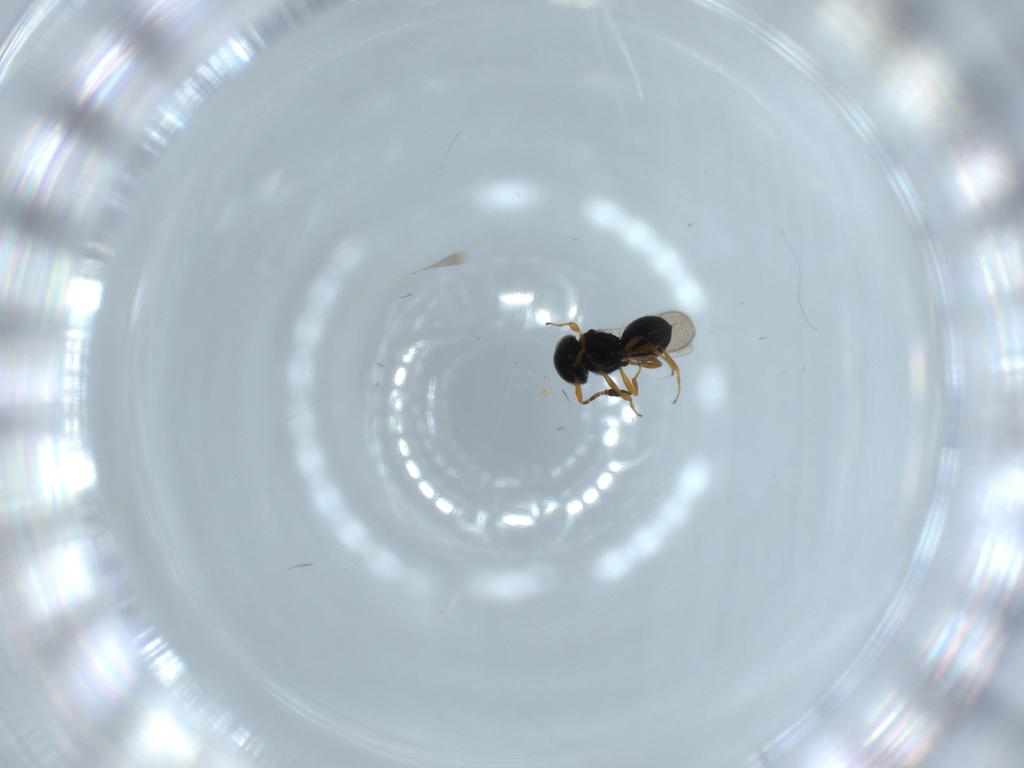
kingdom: Animalia
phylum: Arthropoda
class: Insecta
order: Hymenoptera
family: Scelionidae
